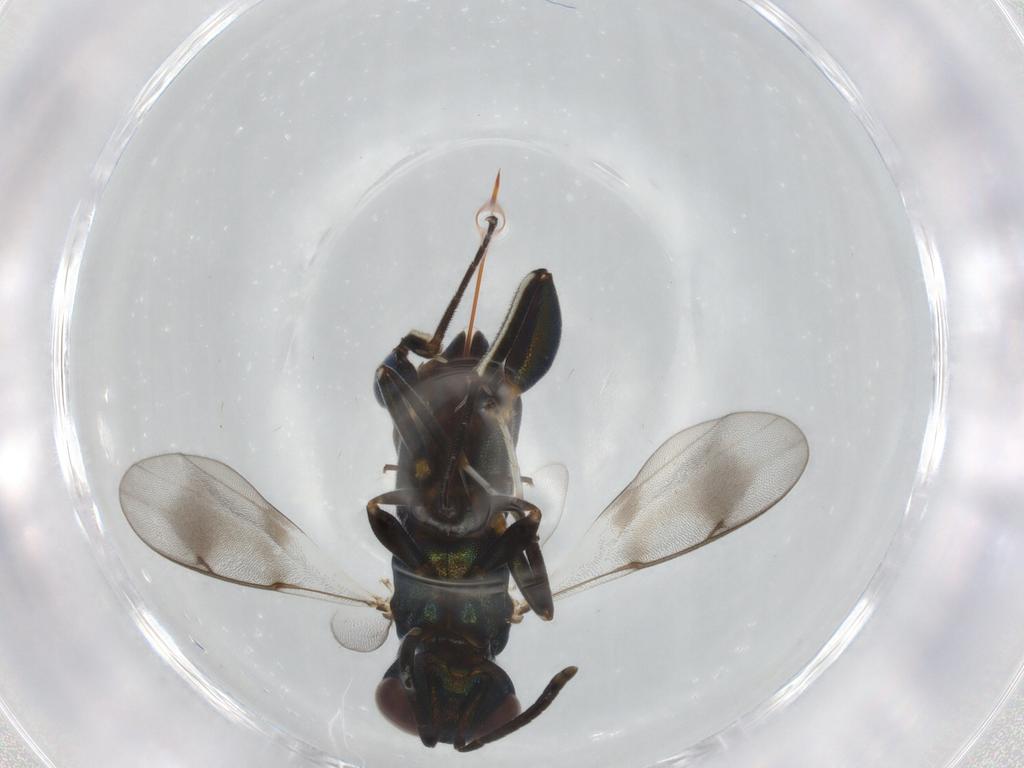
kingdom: Animalia
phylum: Arthropoda
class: Insecta
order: Hymenoptera
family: Eupelmidae
